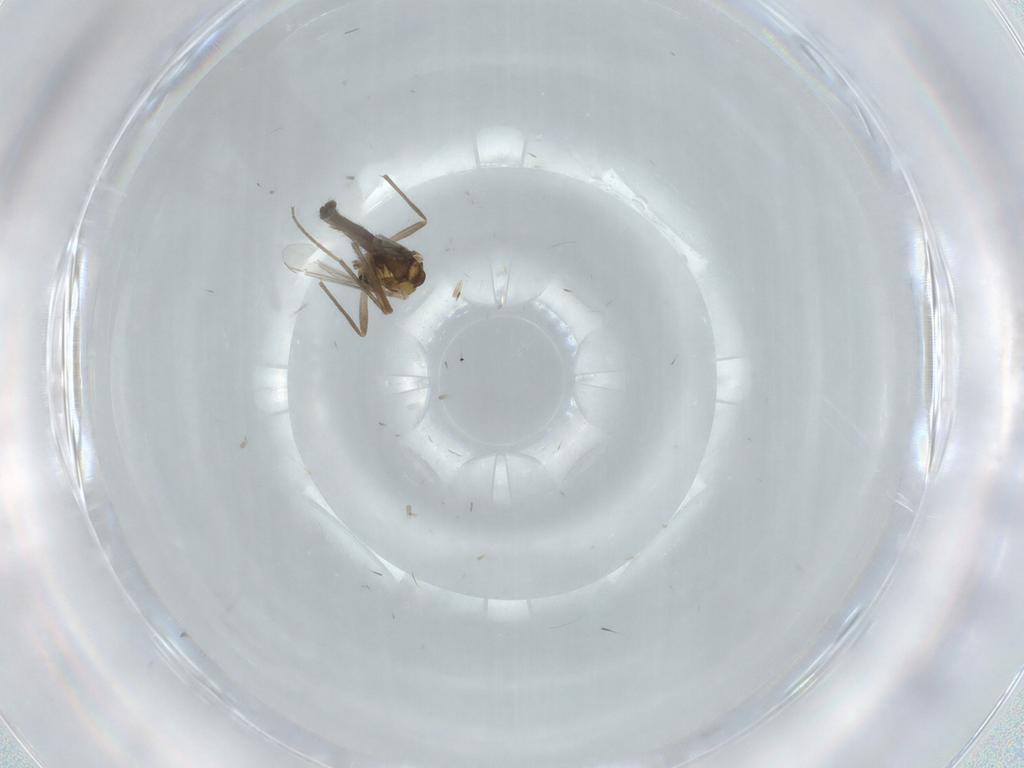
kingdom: Animalia
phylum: Arthropoda
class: Insecta
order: Diptera
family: Chironomidae
